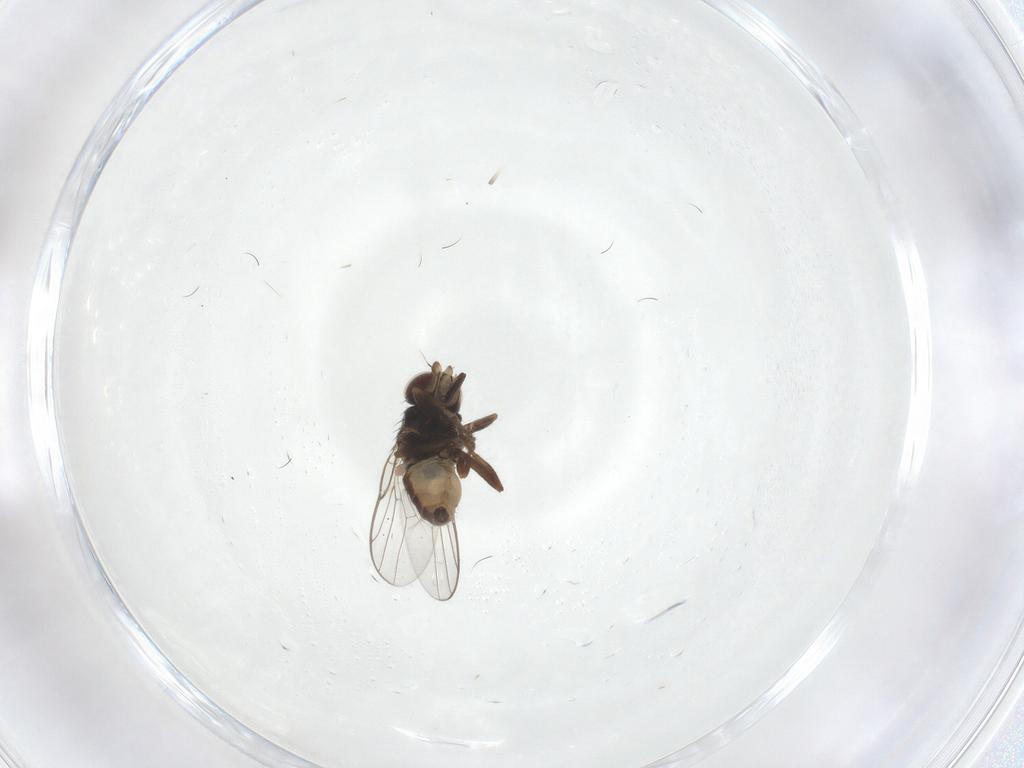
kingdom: Animalia
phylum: Arthropoda
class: Insecta
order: Diptera
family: Chloropidae
